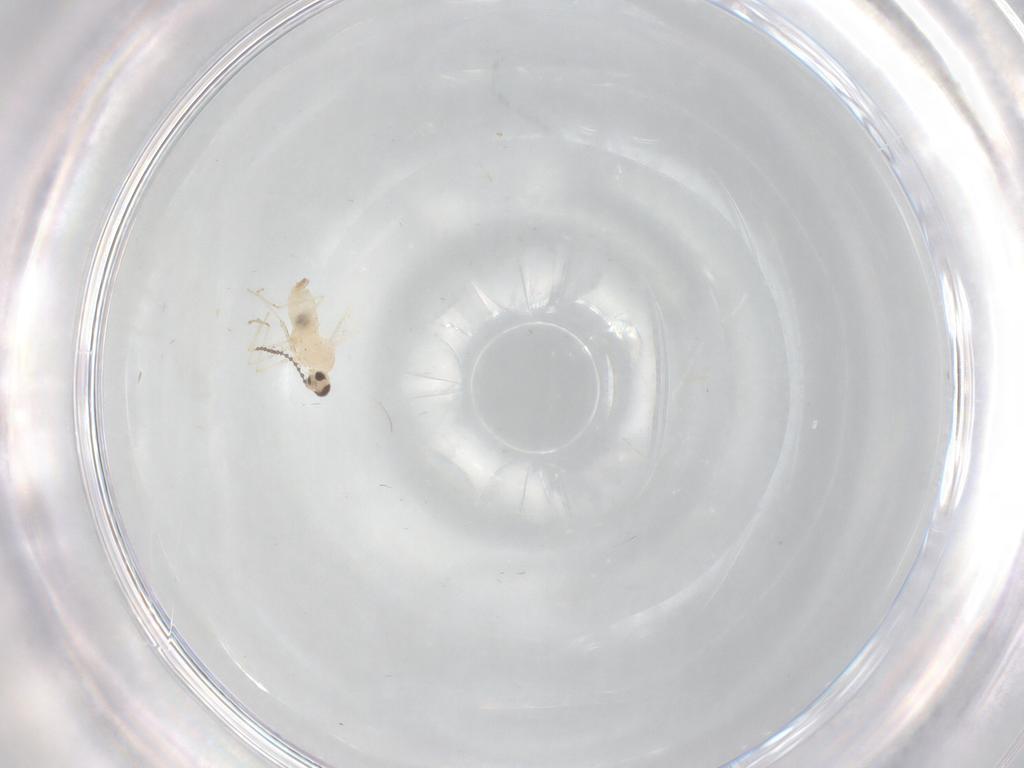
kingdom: Animalia
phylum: Arthropoda
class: Insecta
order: Diptera
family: Cecidomyiidae
